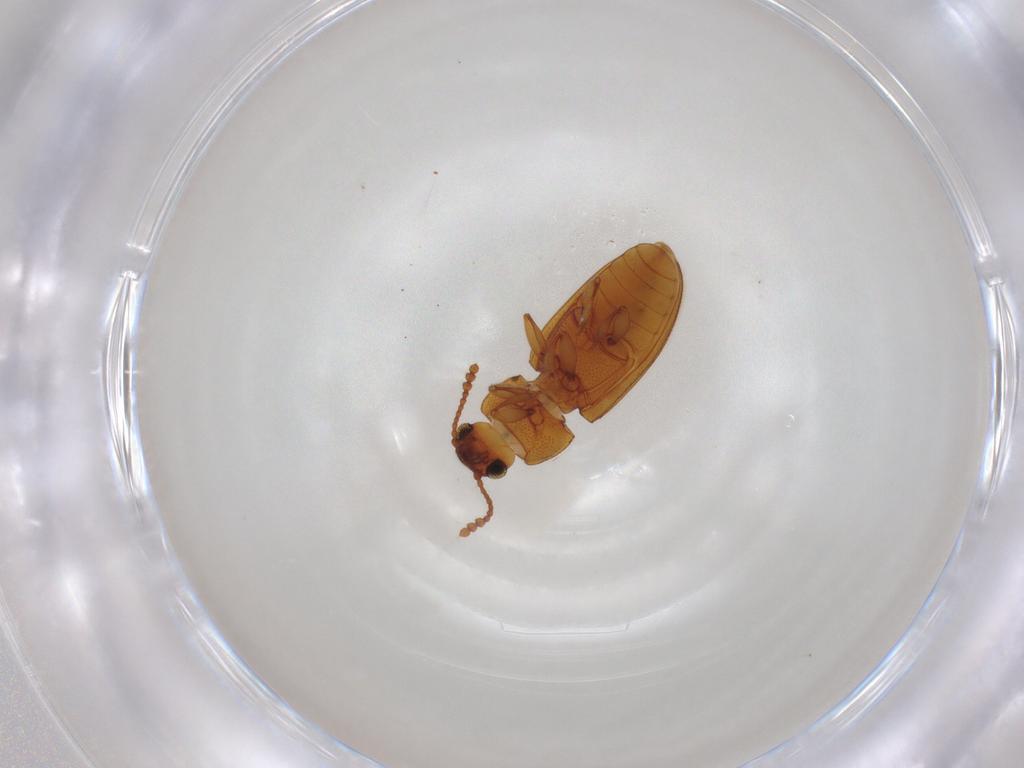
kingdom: Animalia
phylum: Arthropoda
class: Insecta
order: Coleoptera
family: Erotylidae
